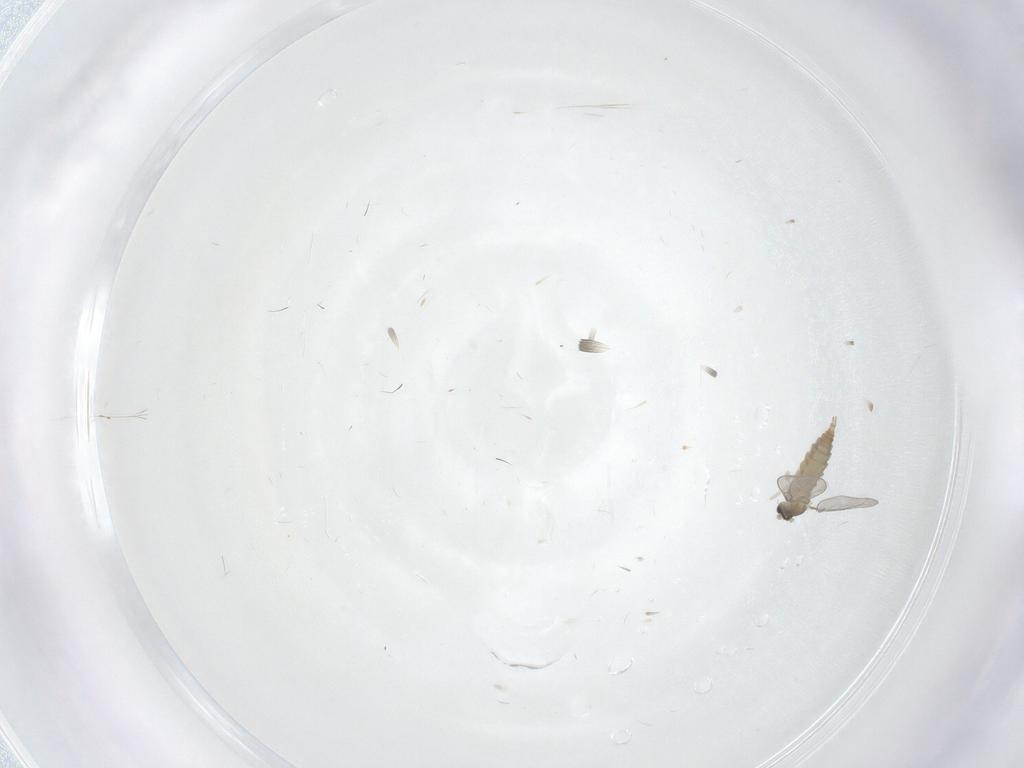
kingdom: Animalia
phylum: Arthropoda
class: Insecta
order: Diptera
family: Cecidomyiidae
